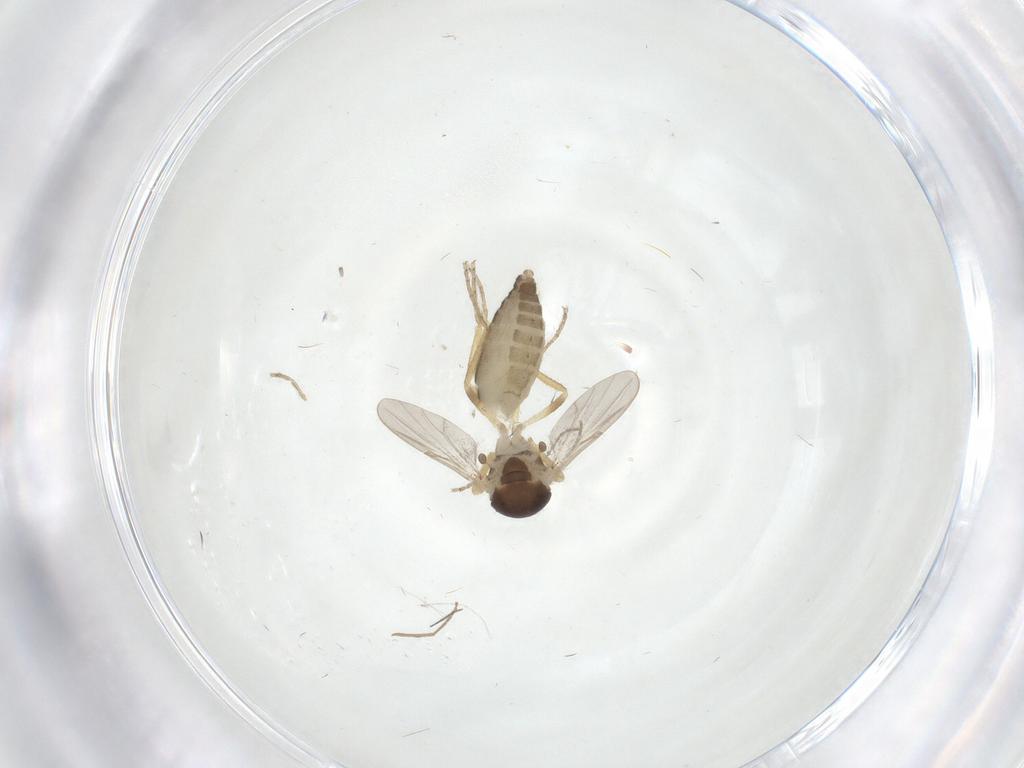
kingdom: Animalia
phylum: Arthropoda
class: Insecta
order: Diptera
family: Ceratopogonidae
